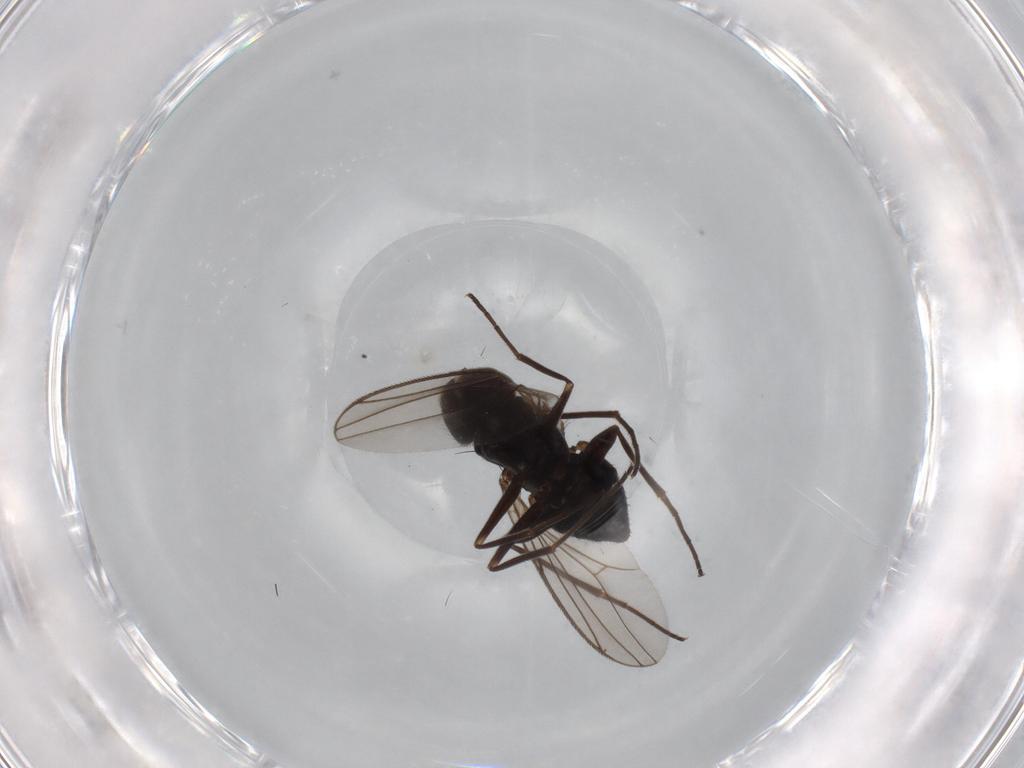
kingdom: Animalia
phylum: Arthropoda
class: Insecta
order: Diptera
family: Dolichopodidae
